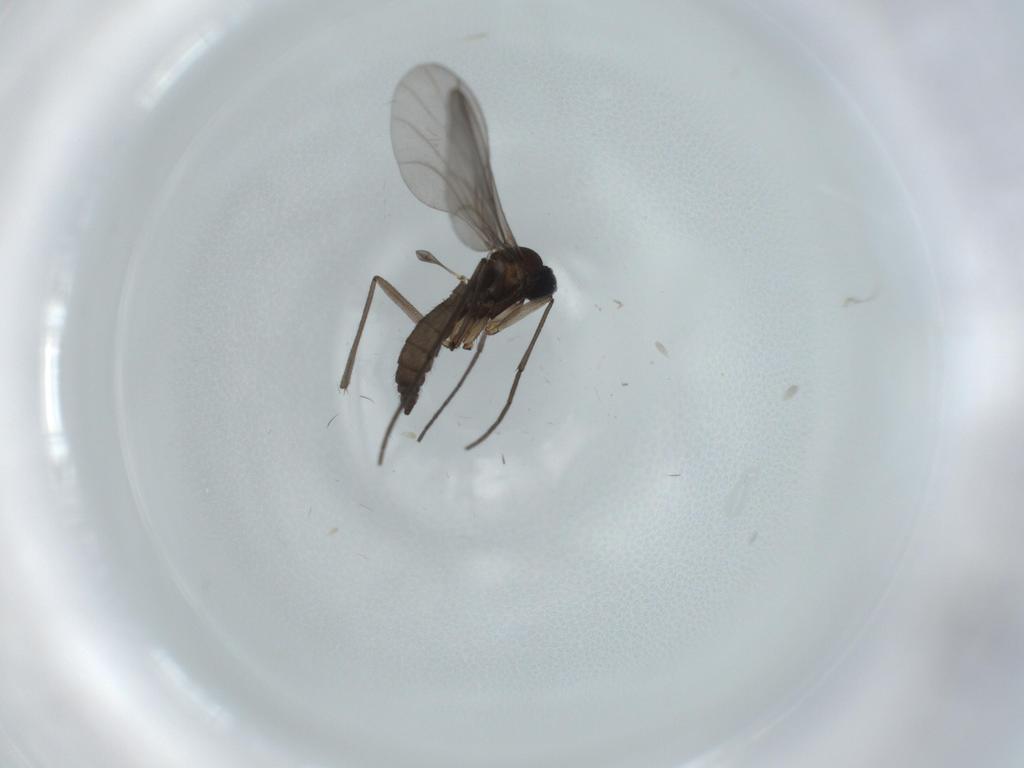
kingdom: Animalia
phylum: Arthropoda
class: Insecta
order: Diptera
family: Sciaridae
